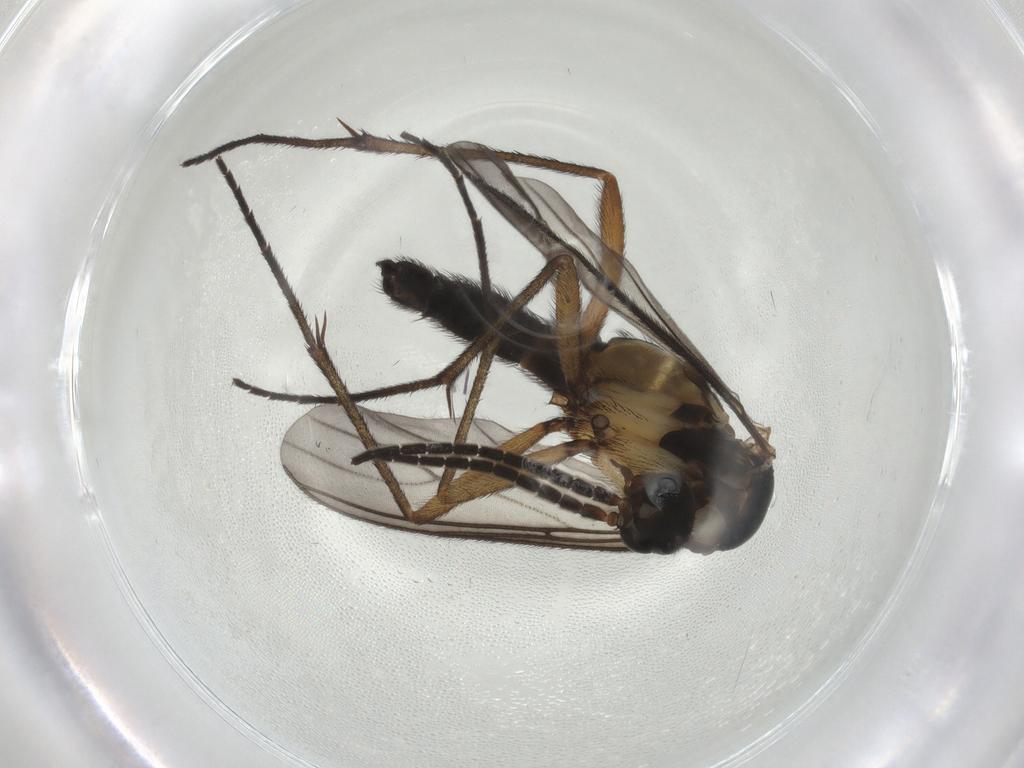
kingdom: Animalia
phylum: Arthropoda
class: Insecta
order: Diptera
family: Sciaridae
